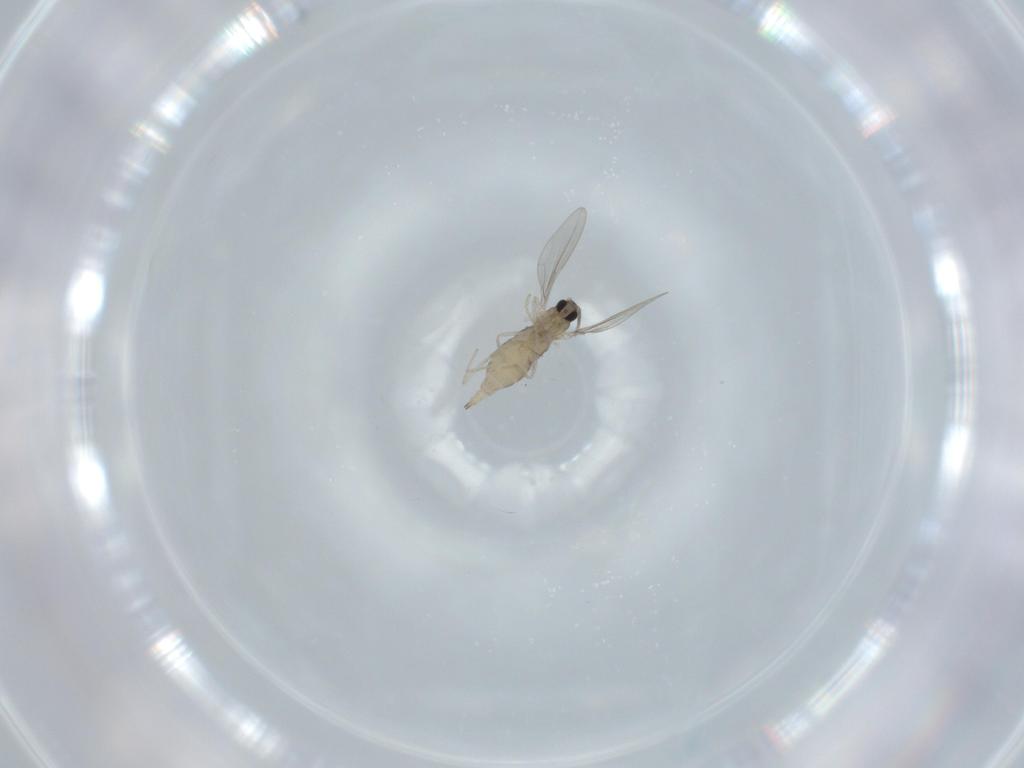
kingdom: Animalia
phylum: Arthropoda
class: Insecta
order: Diptera
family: Cecidomyiidae
